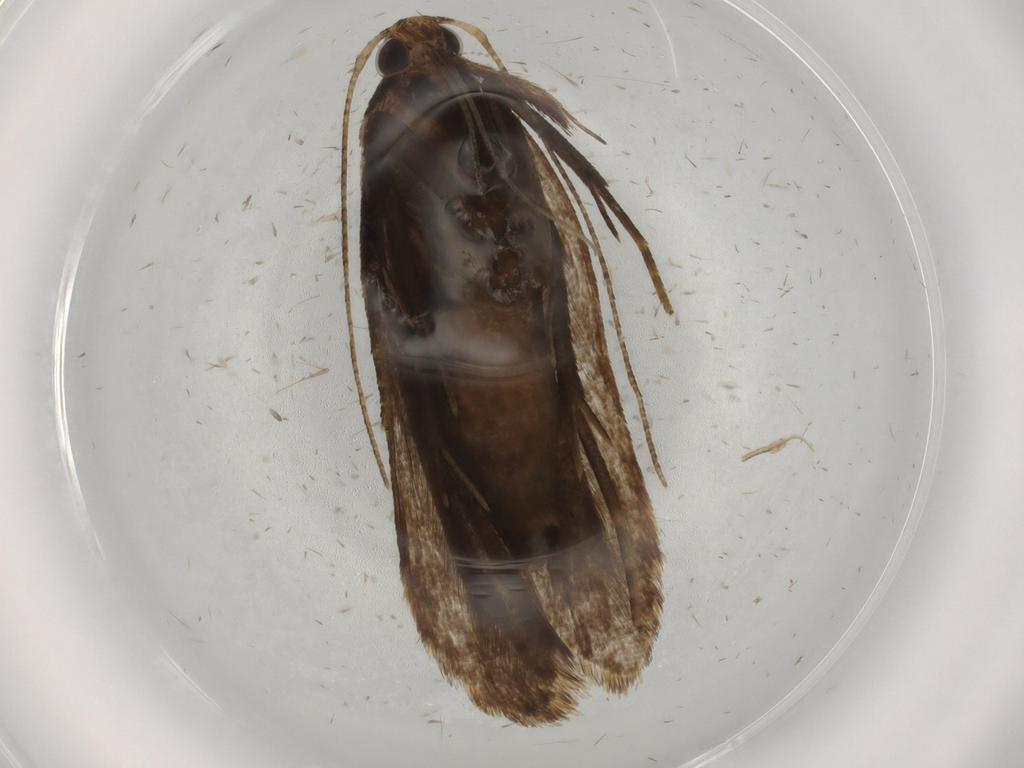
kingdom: Animalia
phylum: Arthropoda
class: Insecta
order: Lepidoptera
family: Gelechiidae
